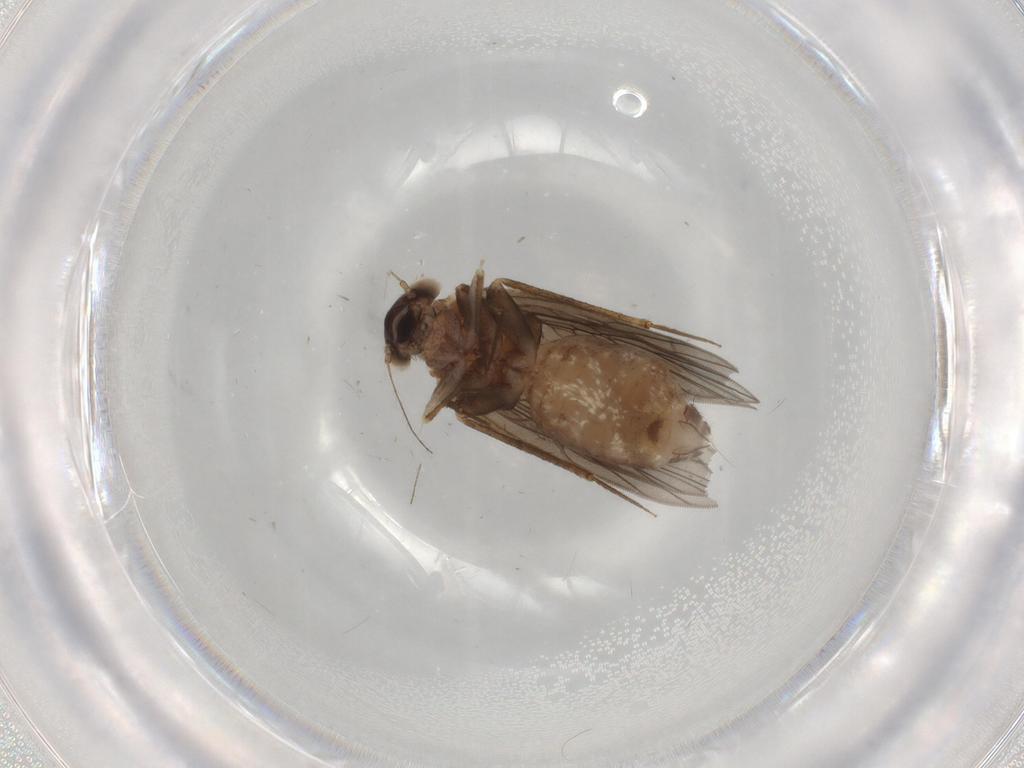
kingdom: Animalia
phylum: Arthropoda
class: Insecta
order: Psocodea
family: Lepidopsocidae
